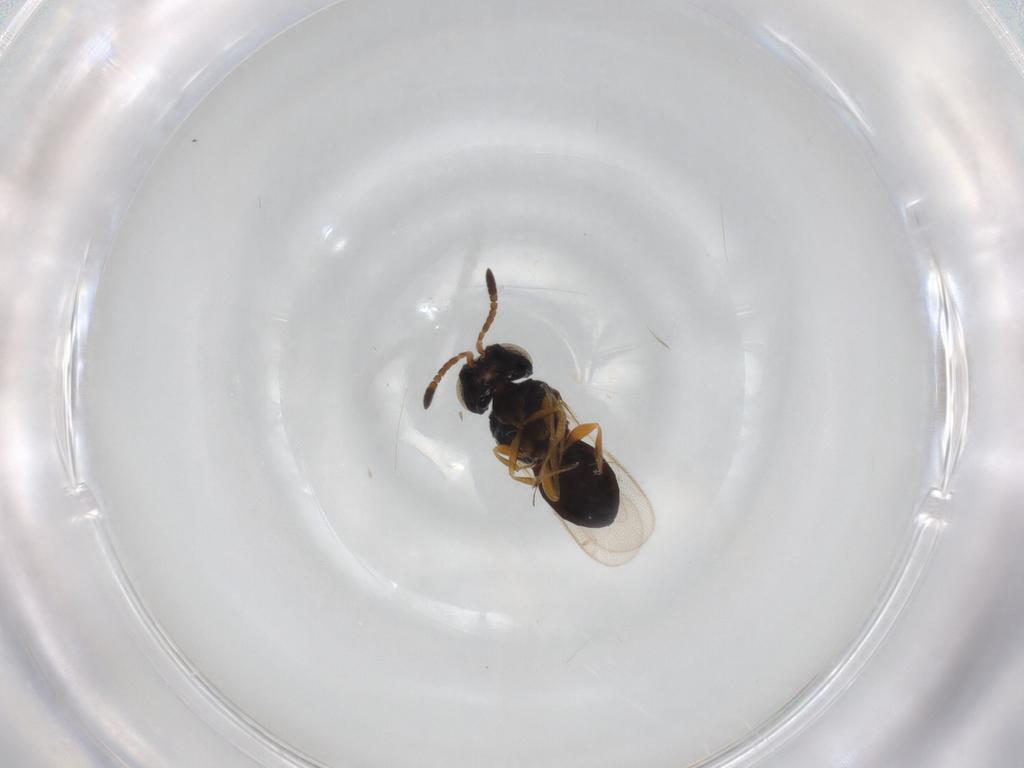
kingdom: Animalia
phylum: Arthropoda
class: Insecta
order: Hymenoptera
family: Scelionidae
